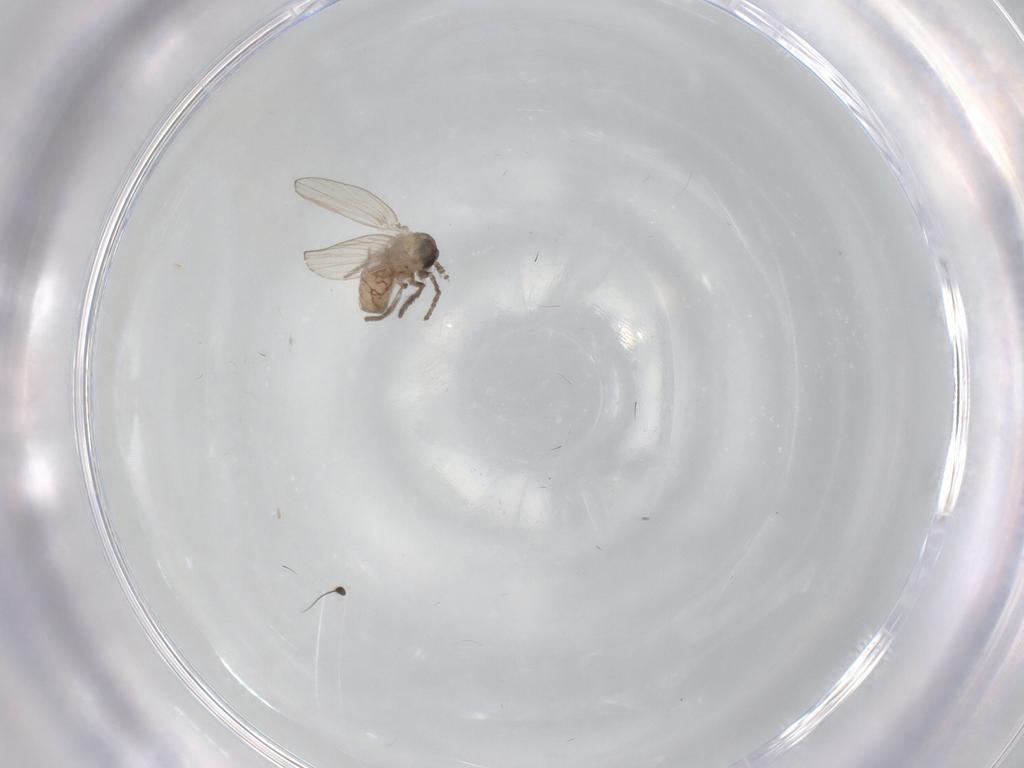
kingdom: Animalia
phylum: Arthropoda
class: Insecta
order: Diptera
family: Psychodidae
